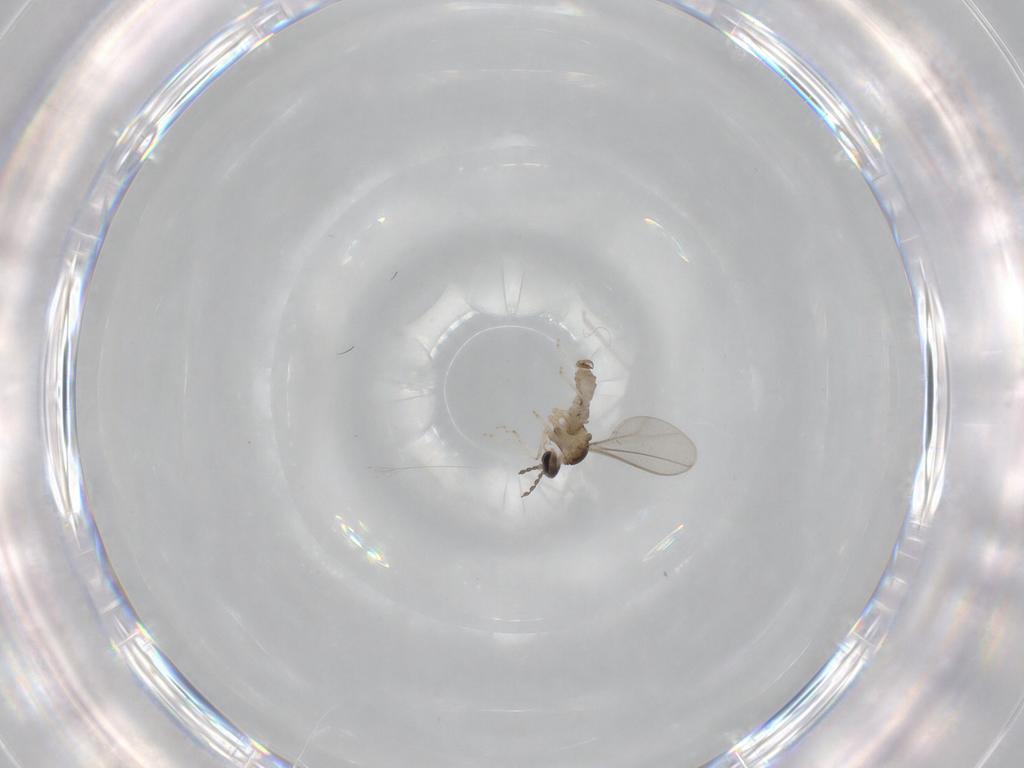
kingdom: Animalia
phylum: Arthropoda
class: Insecta
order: Diptera
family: Cecidomyiidae
